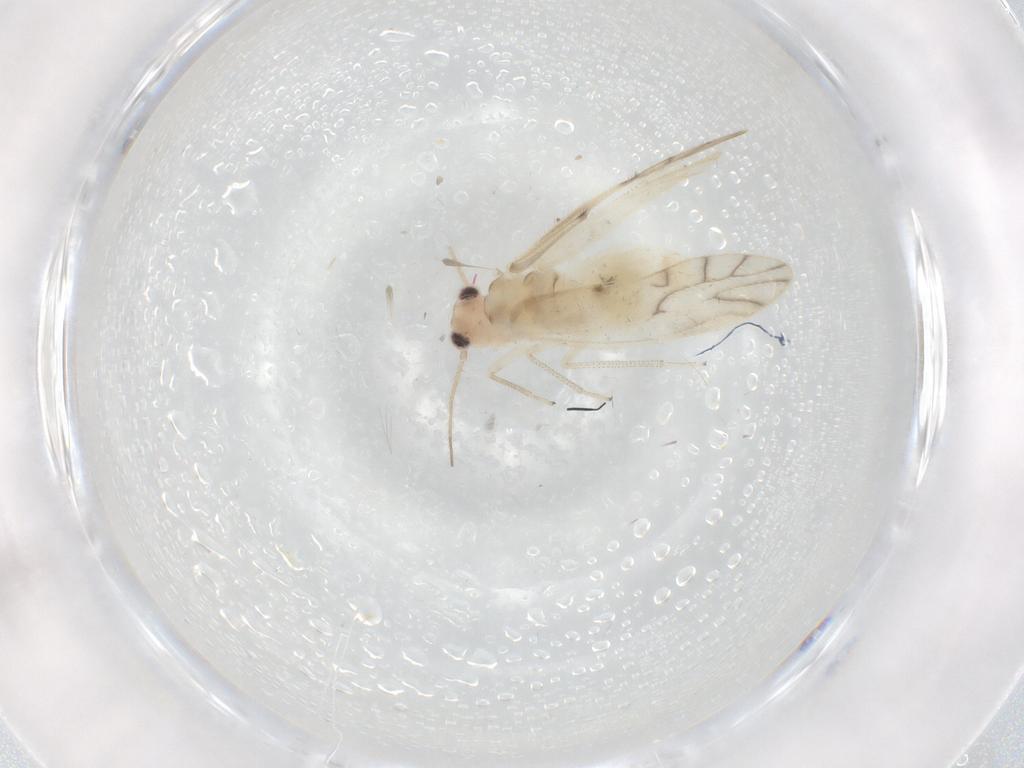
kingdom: Animalia
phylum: Arthropoda
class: Insecta
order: Psocodea
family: Caeciliusidae
